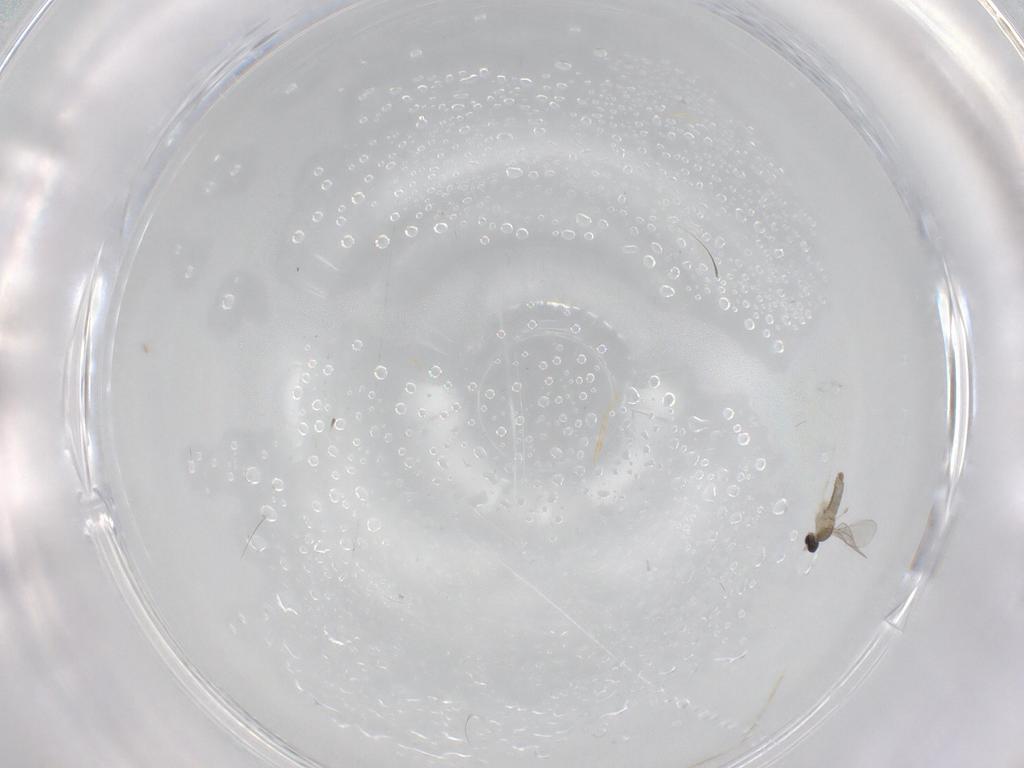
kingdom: Animalia
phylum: Arthropoda
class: Insecta
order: Diptera
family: Cecidomyiidae
